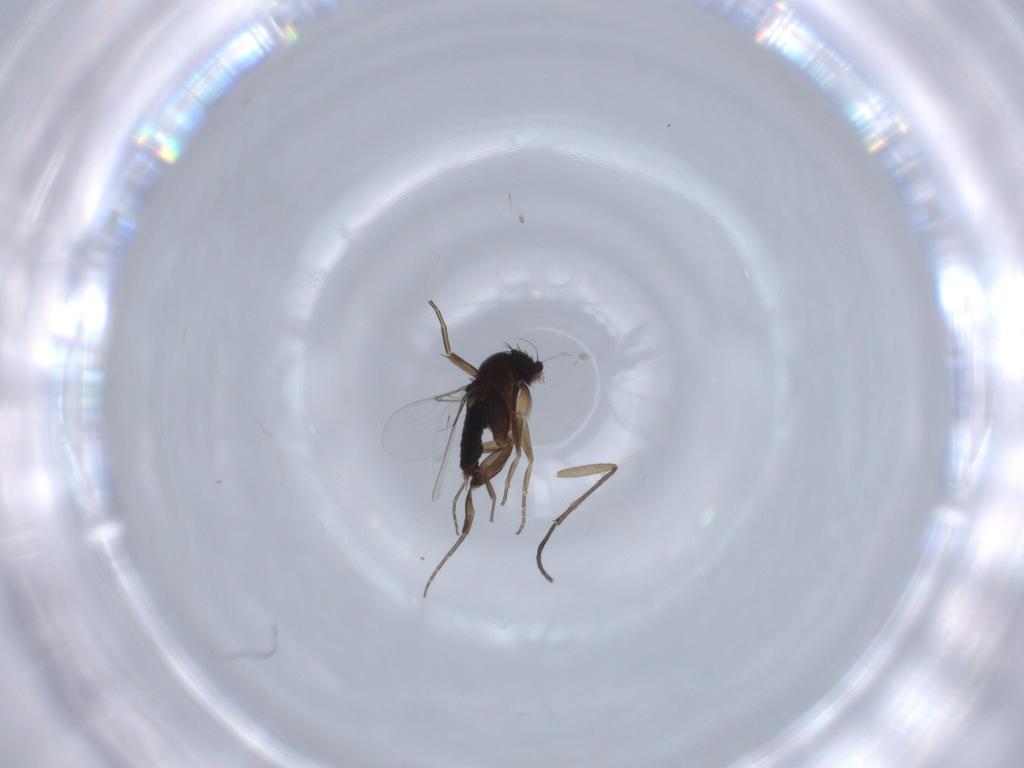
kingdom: Animalia
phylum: Arthropoda
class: Insecta
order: Diptera
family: Phoridae
